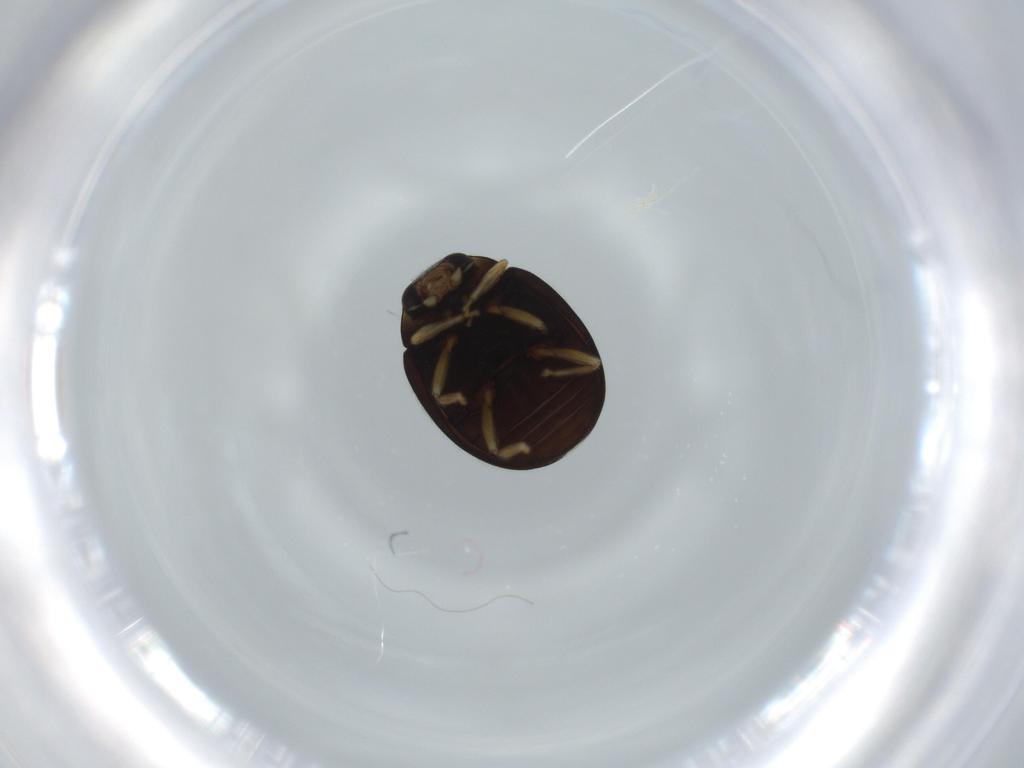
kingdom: Animalia
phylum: Arthropoda
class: Insecta
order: Coleoptera
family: Coccinellidae
